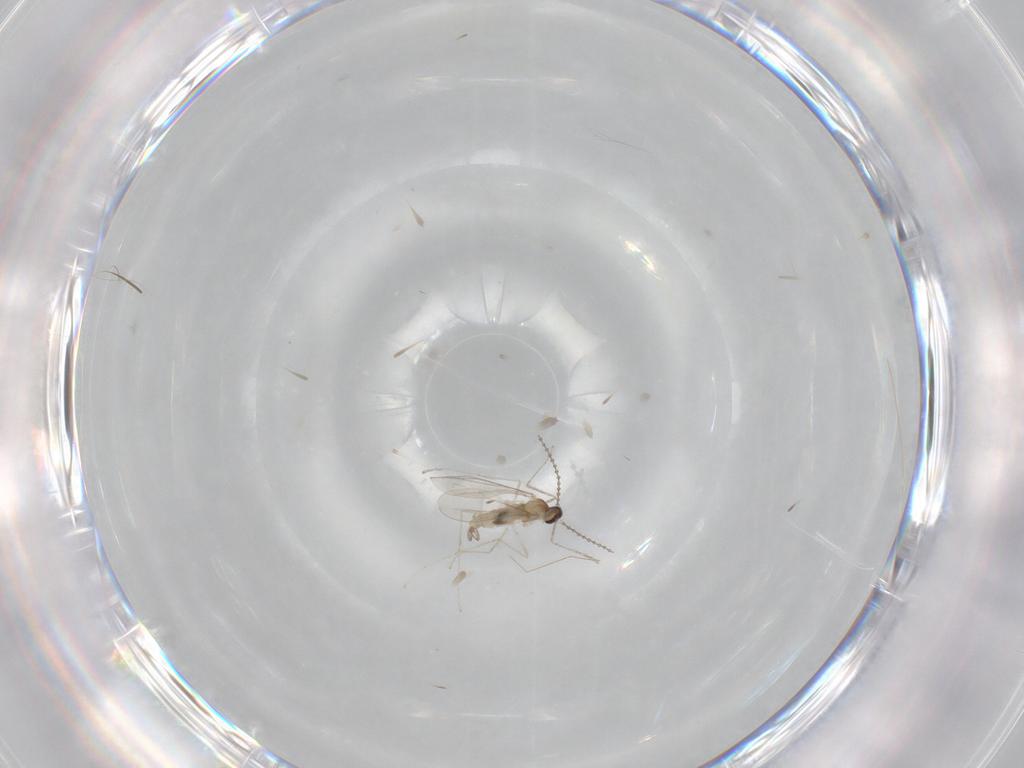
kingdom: Animalia
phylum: Arthropoda
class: Insecta
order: Diptera
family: Cecidomyiidae
